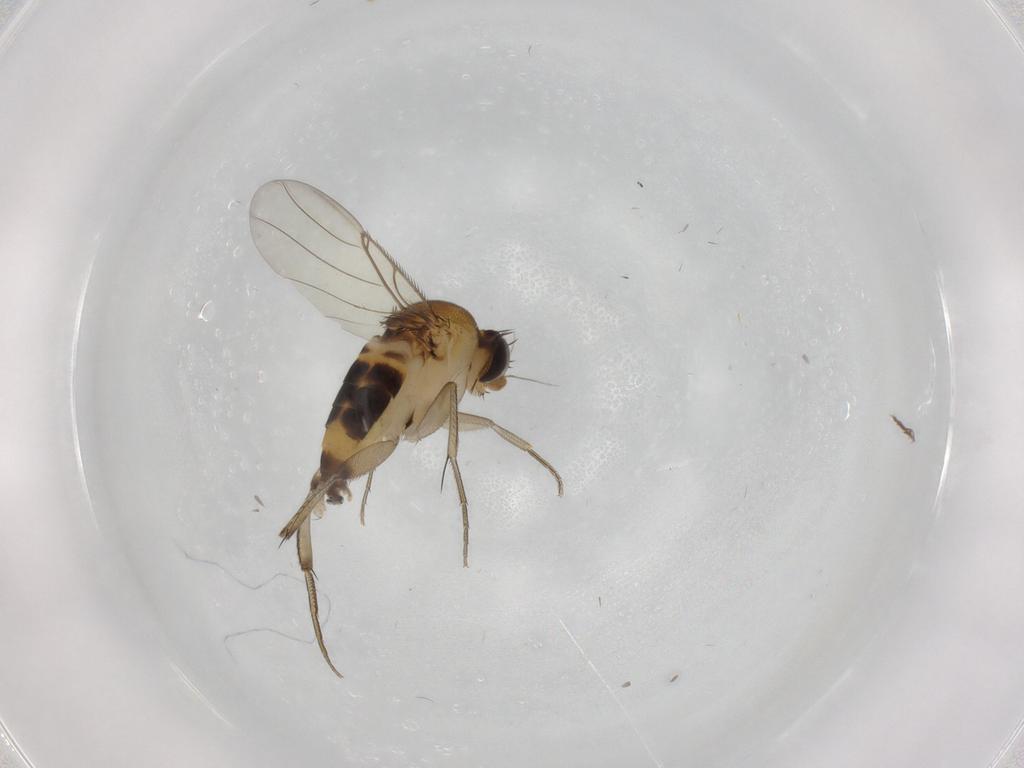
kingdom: Animalia
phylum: Arthropoda
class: Insecta
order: Diptera
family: Phoridae
